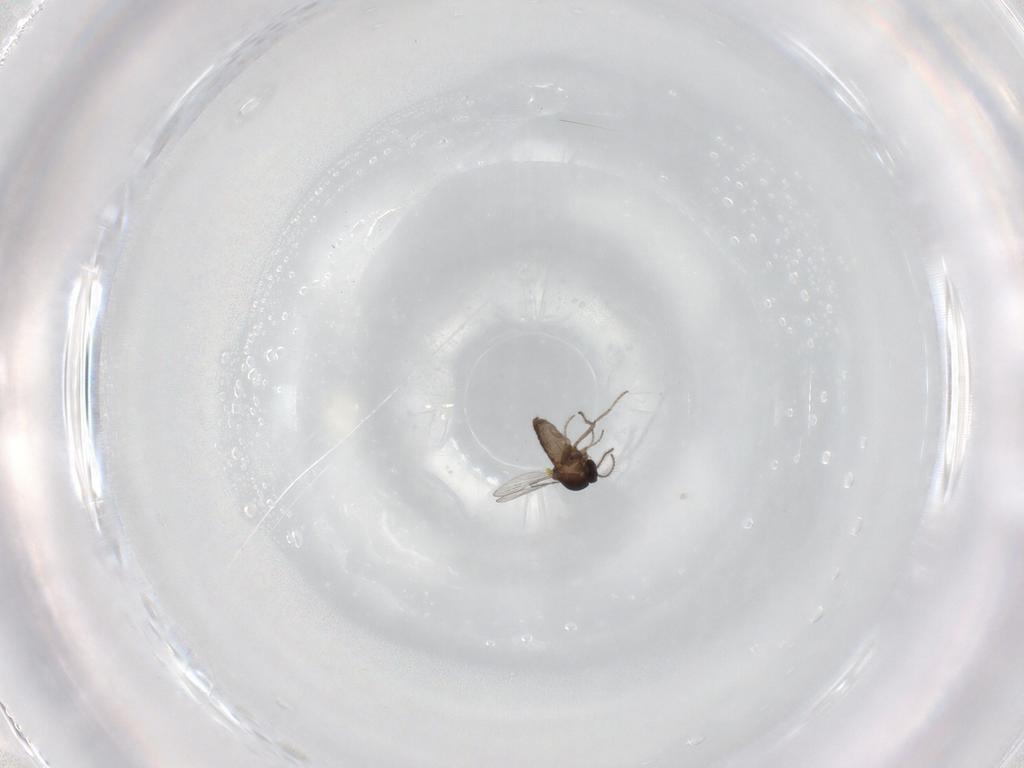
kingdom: Animalia
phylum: Arthropoda
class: Insecta
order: Diptera
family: Ceratopogonidae
